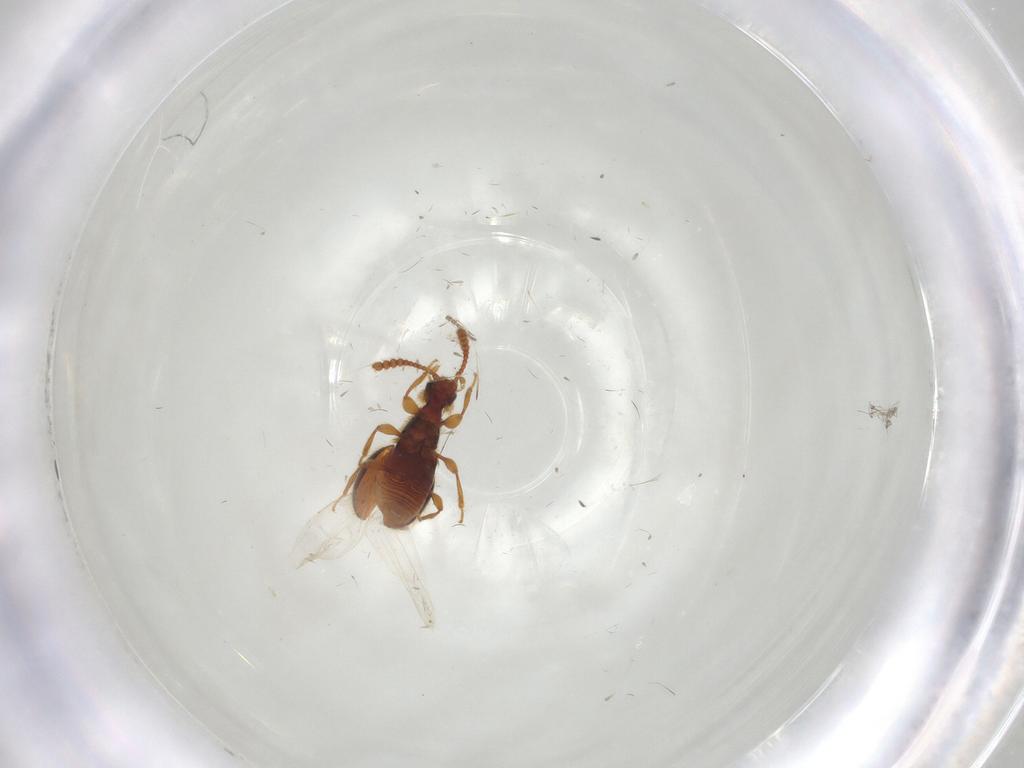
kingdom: Animalia
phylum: Arthropoda
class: Insecta
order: Coleoptera
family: Staphylinidae
